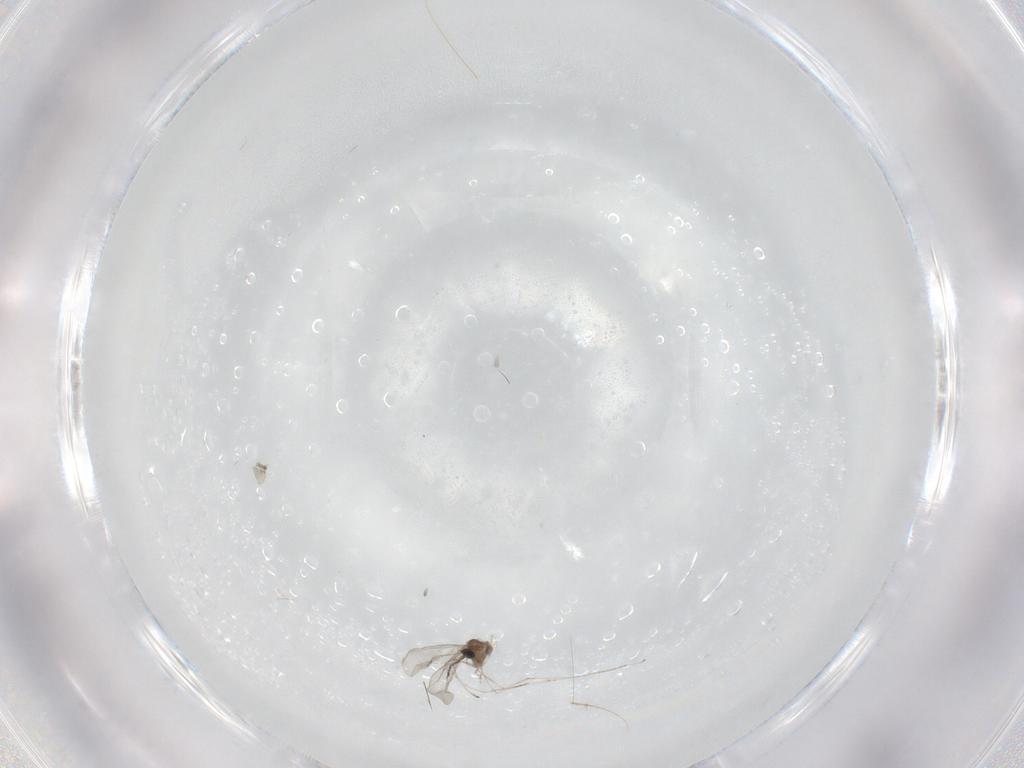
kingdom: Animalia
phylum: Arthropoda
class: Insecta
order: Diptera
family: Cecidomyiidae
